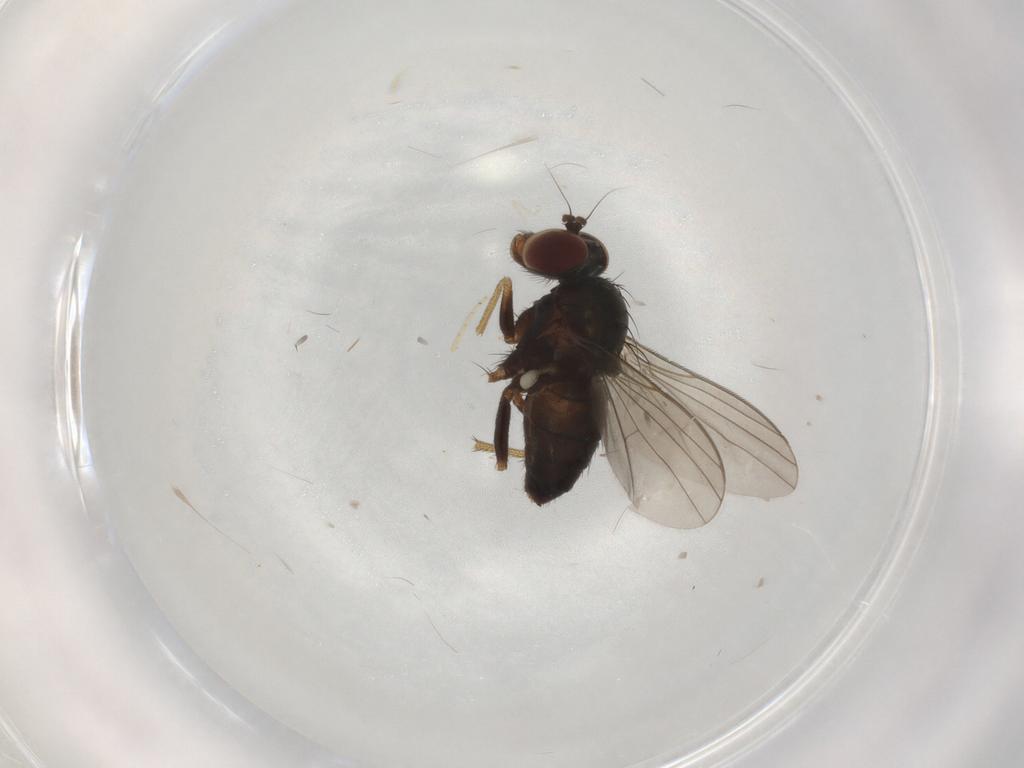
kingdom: Animalia
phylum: Arthropoda
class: Insecta
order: Diptera
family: Dolichopodidae
